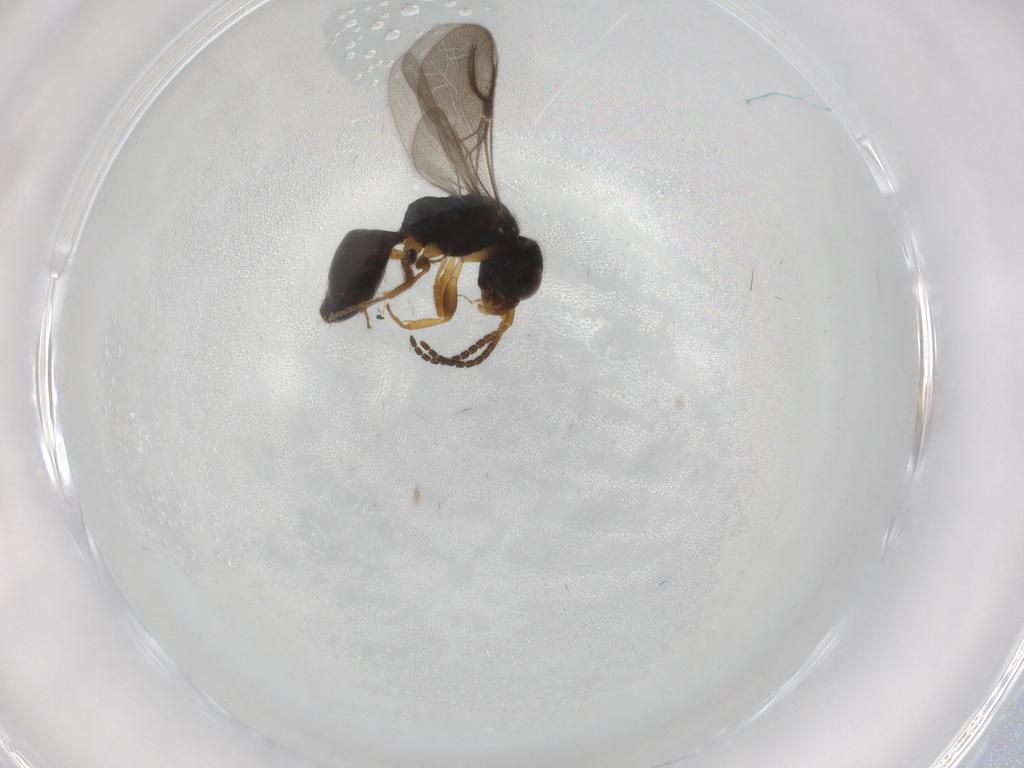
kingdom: Animalia
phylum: Arthropoda
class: Insecta
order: Hymenoptera
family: Bethylidae
